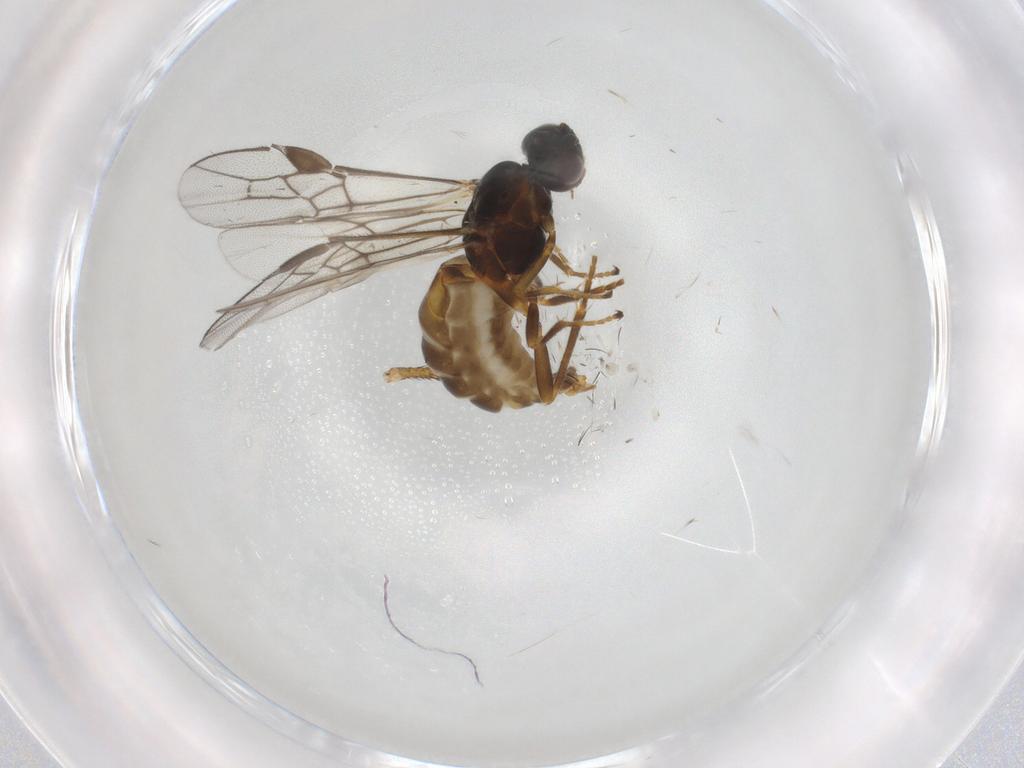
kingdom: Animalia
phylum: Arthropoda
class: Insecta
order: Hymenoptera
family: Braconidae
